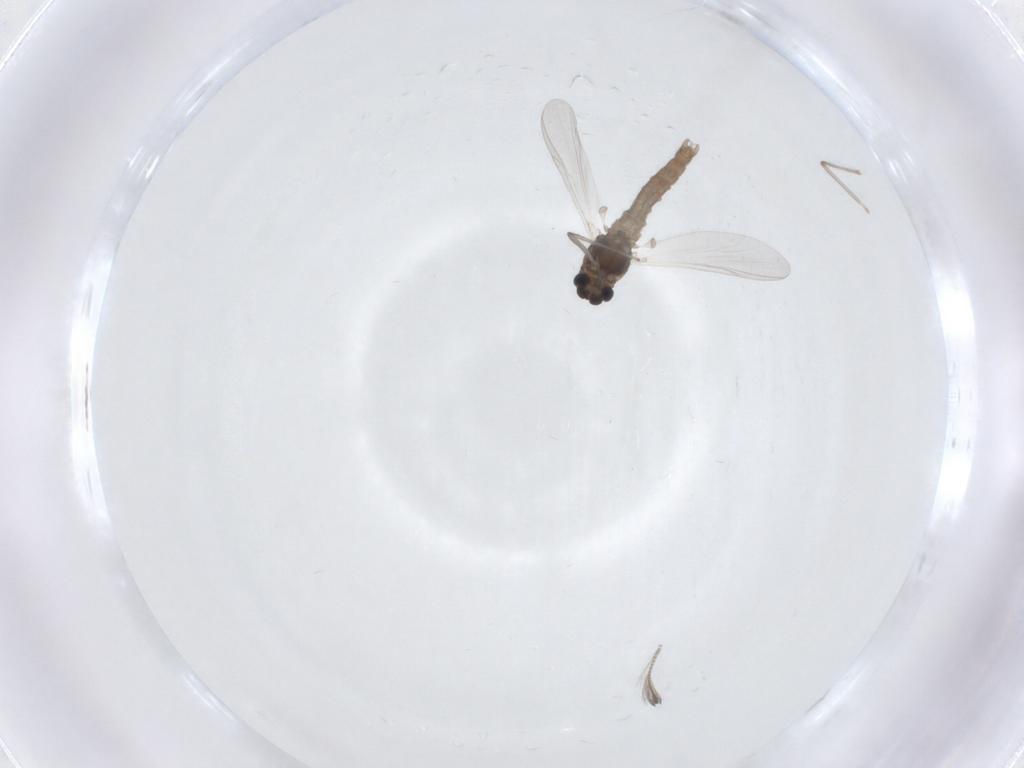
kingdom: Animalia
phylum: Arthropoda
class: Insecta
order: Diptera
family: Chironomidae
